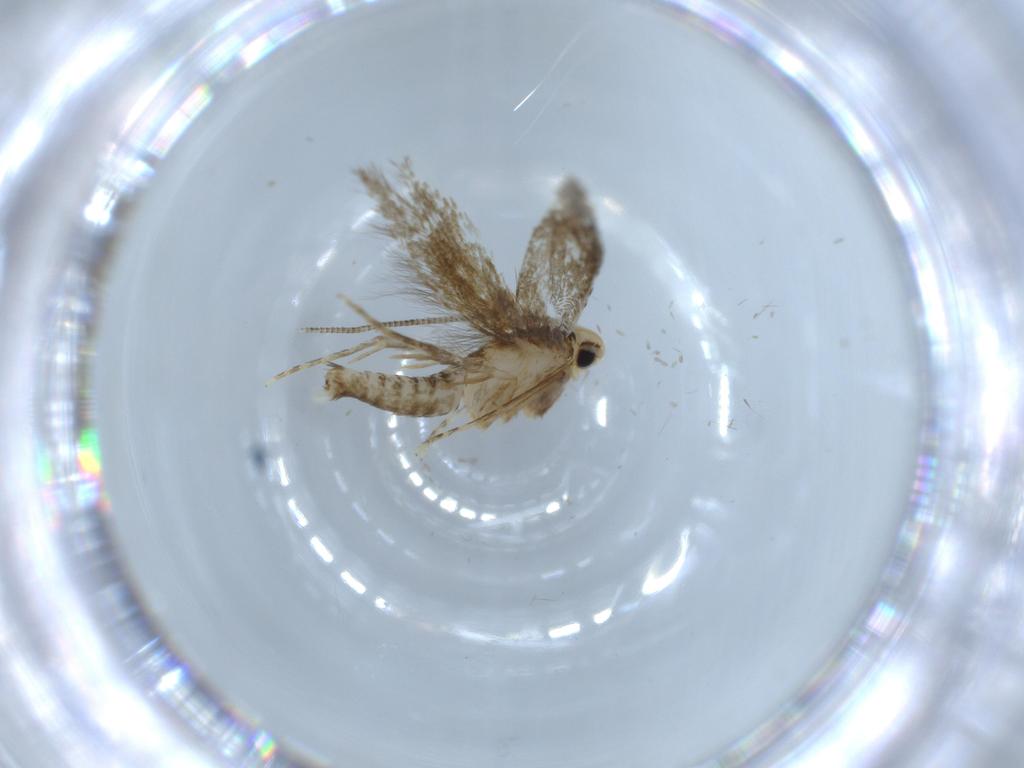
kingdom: Animalia
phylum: Arthropoda
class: Insecta
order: Lepidoptera
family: Tineidae
